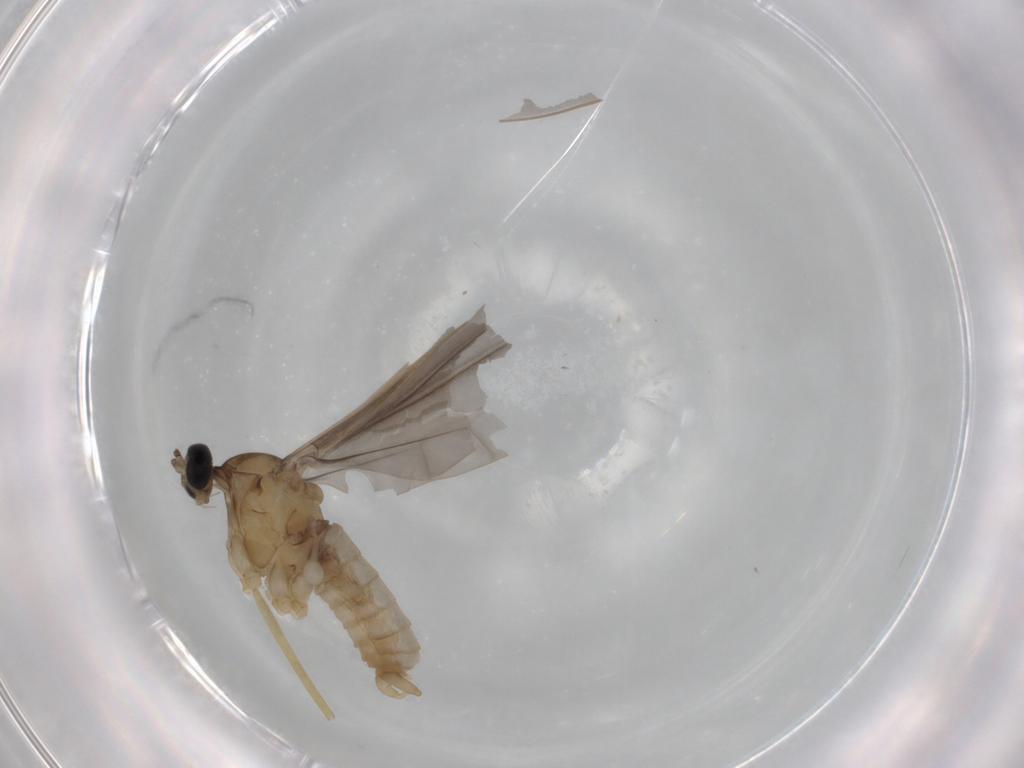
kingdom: Animalia
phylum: Arthropoda
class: Insecta
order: Diptera
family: Cecidomyiidae
